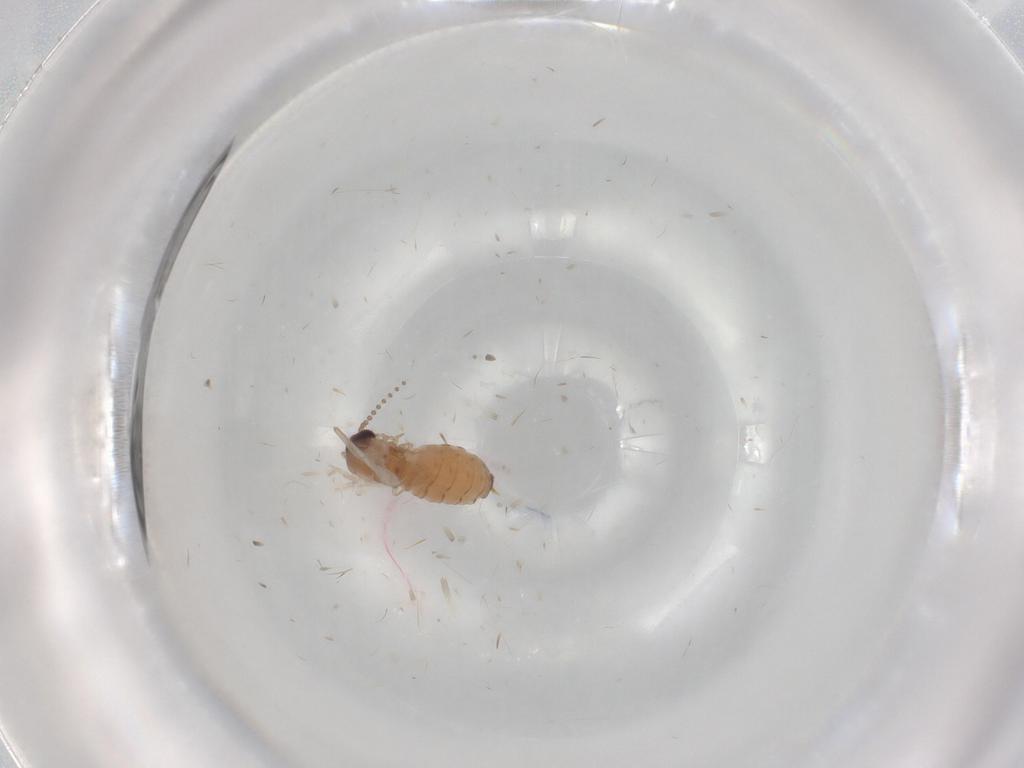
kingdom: Animalia
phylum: Arthropoda
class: Insecta
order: Diptera
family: Psychodidae
